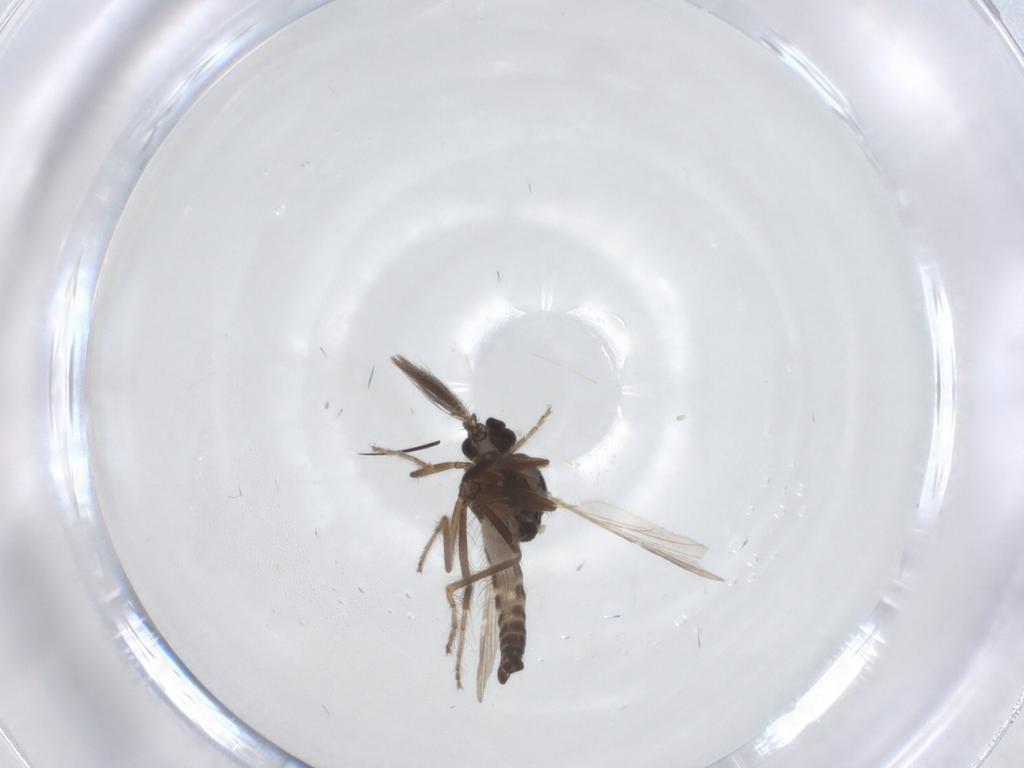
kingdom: Animalia
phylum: Arthropoda
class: Insecta
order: Diptera
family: Ceratopogonidae
